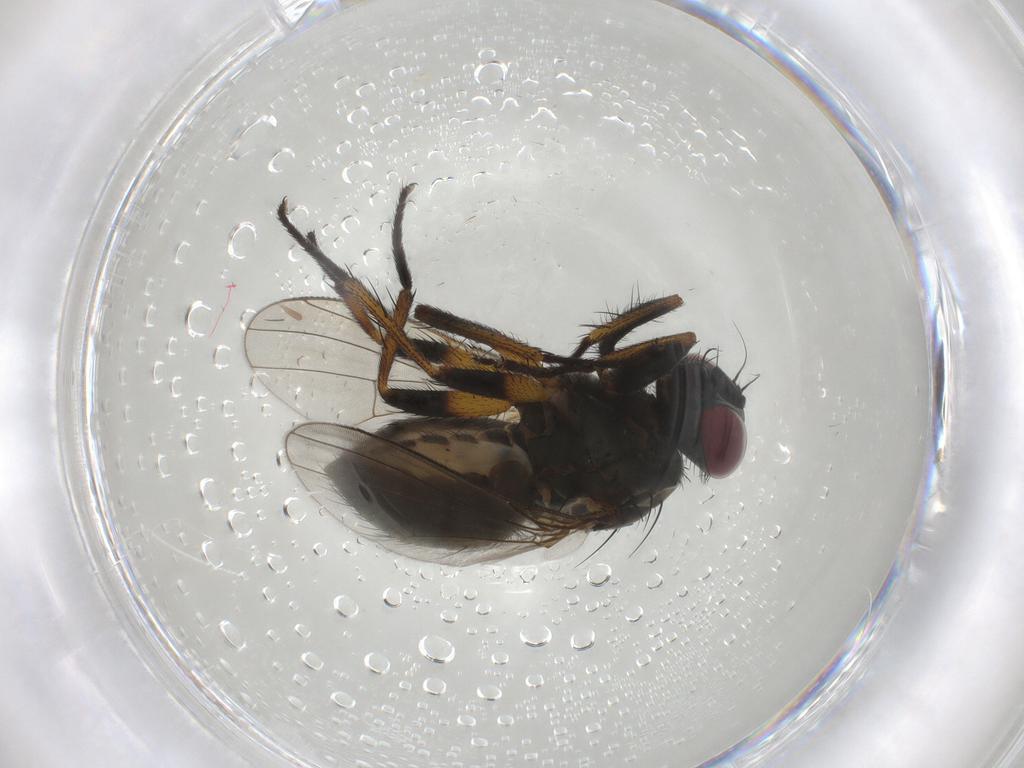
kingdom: Animalia
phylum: Arthropoda
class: Insecta
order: Diptera
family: Muscidae
